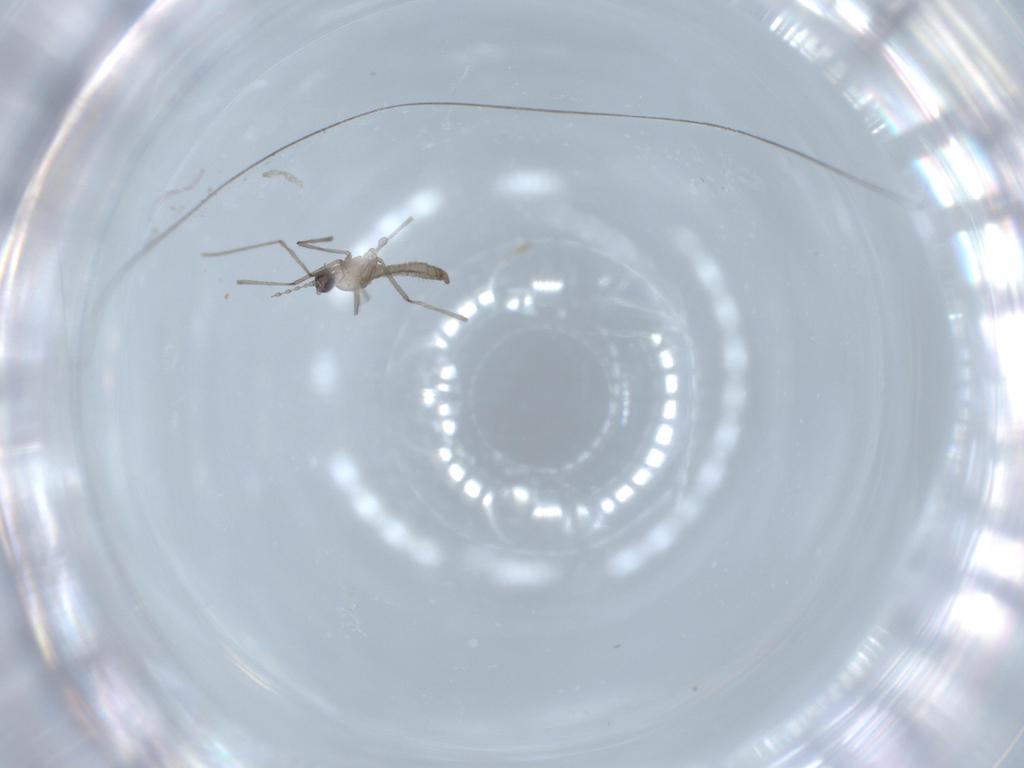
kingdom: Animalia
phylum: Arthropoda
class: Insecta
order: Diptera
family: Cecidomyiidae
